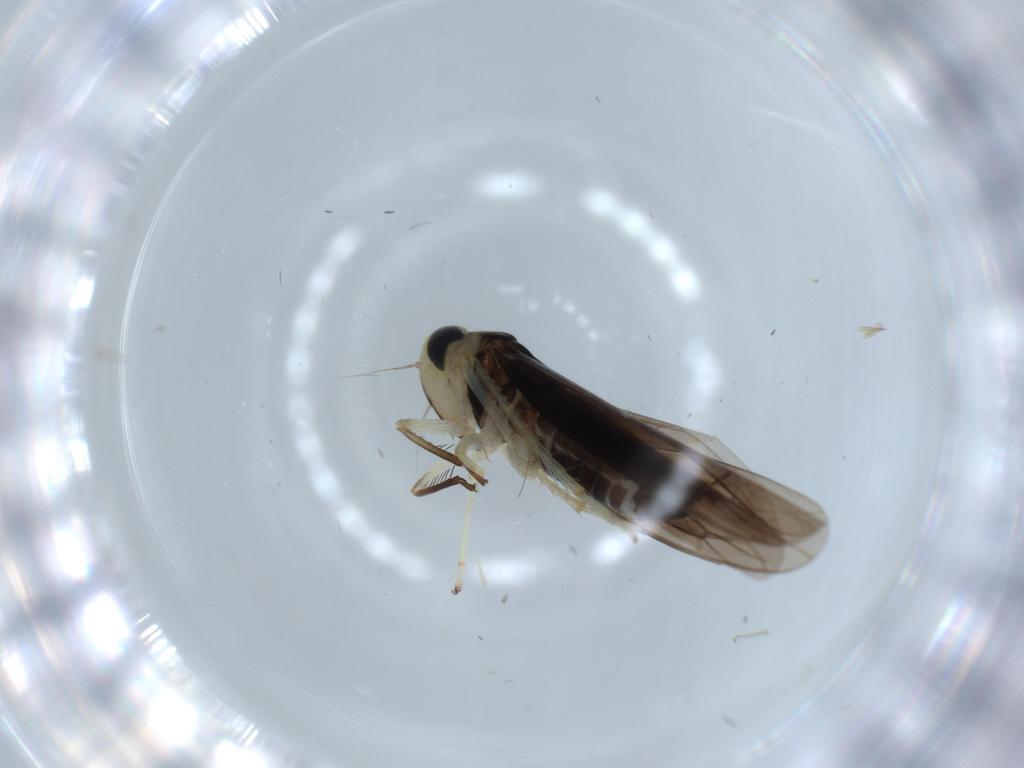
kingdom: Animalia
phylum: Arthropoda
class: Insecta
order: Hemiptera
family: Cicadellidae
